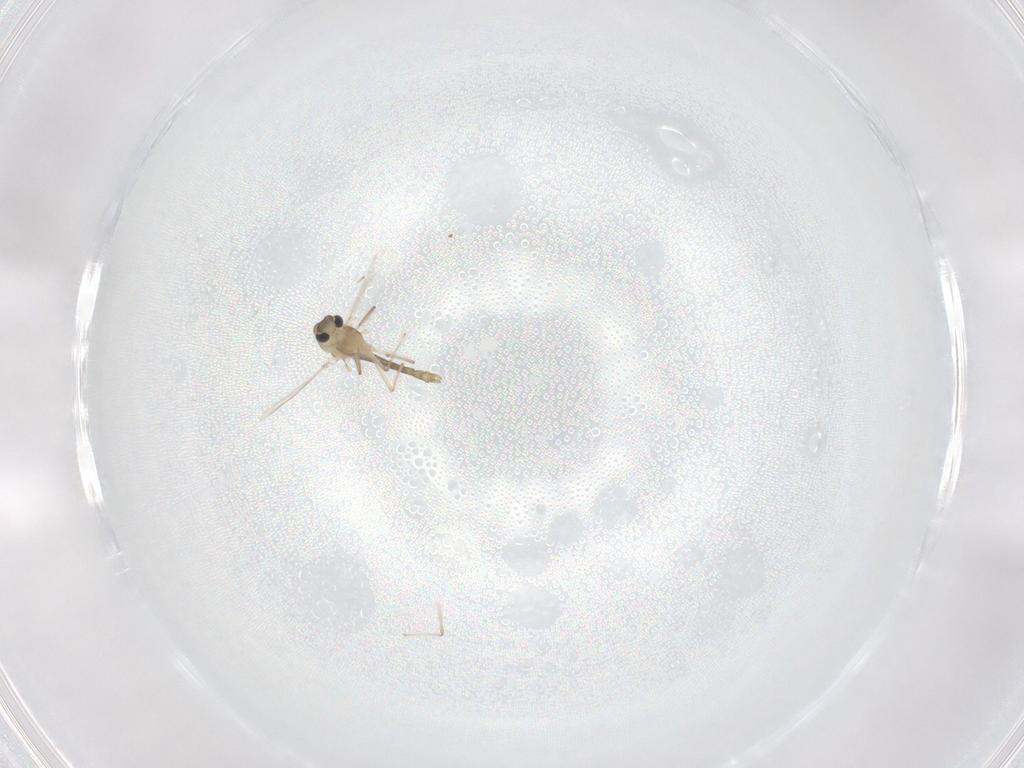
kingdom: Animalia
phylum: Arthropoda
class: Insecta
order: Diptera
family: Chironomidae
